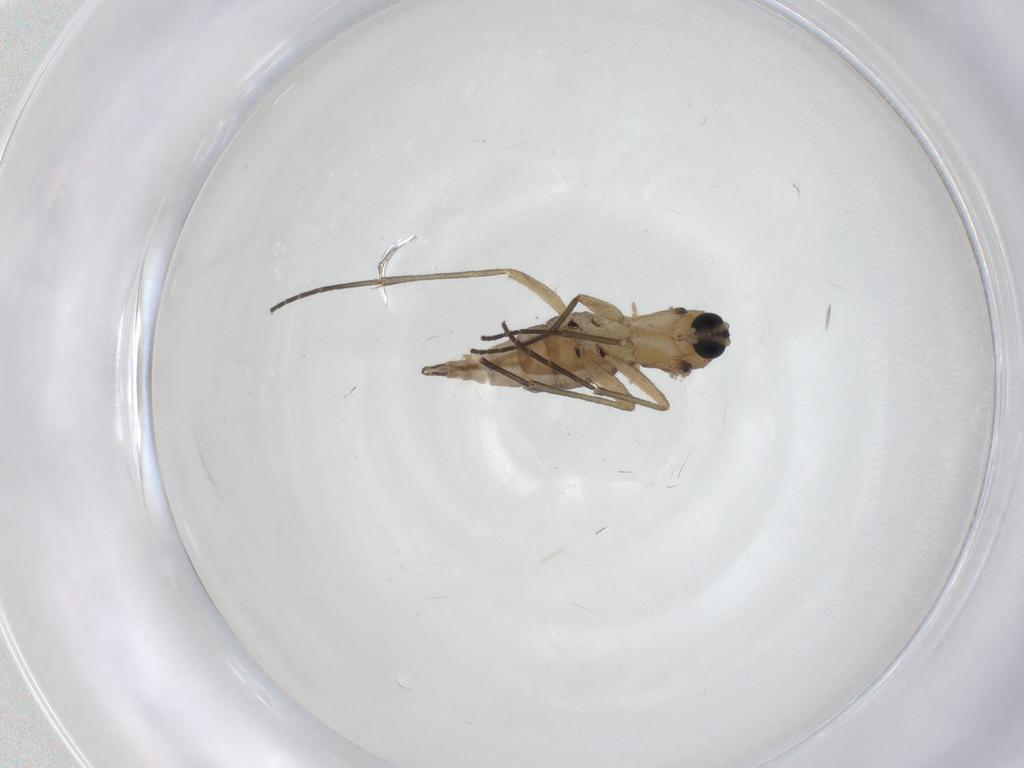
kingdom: Animalia
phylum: Arthropoda
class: Insecta
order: Diptera
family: Sciaridae
